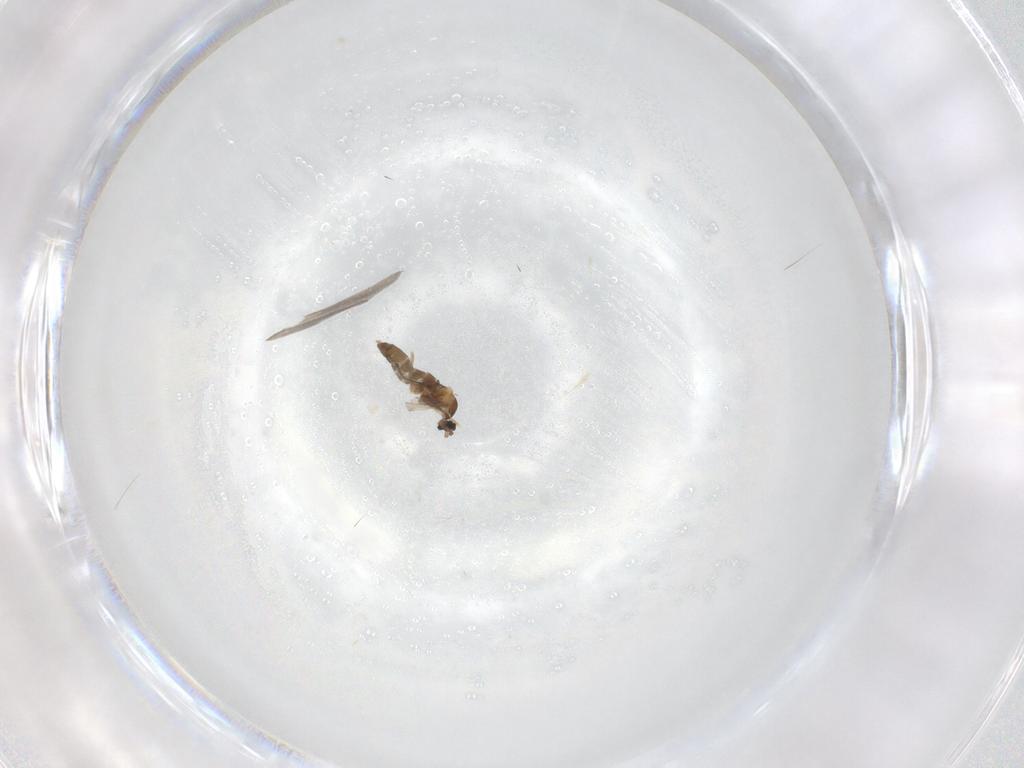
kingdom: Animalia
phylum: Arthropoda
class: Insecta
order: Diptera
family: Cecidomyiidae
